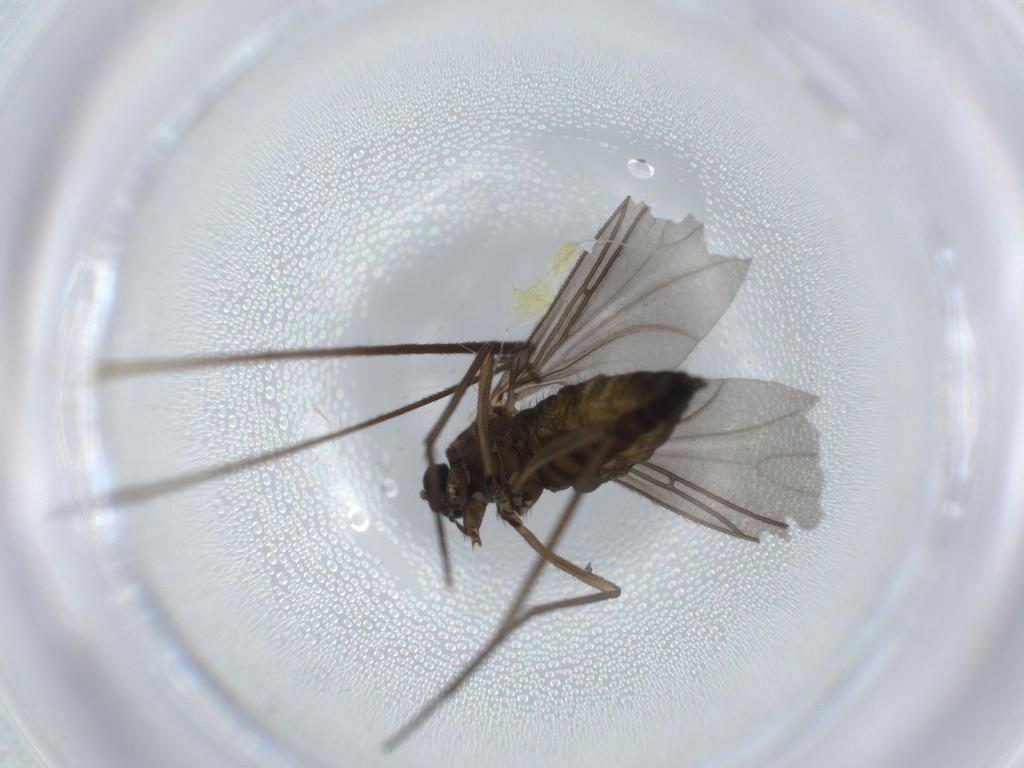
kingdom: Animalia
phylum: Arthropoda
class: Insecta
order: Diptera
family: Sciaridae
